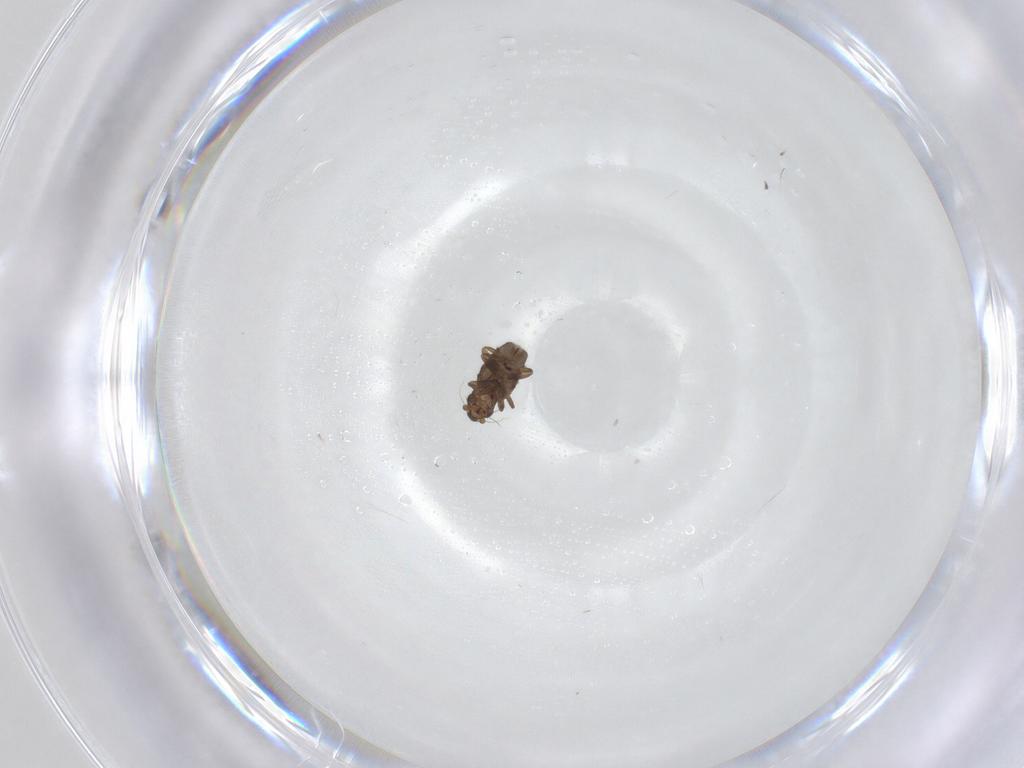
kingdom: Animalia
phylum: Arthropoda
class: Insecta
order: Diptera
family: Phoridae
